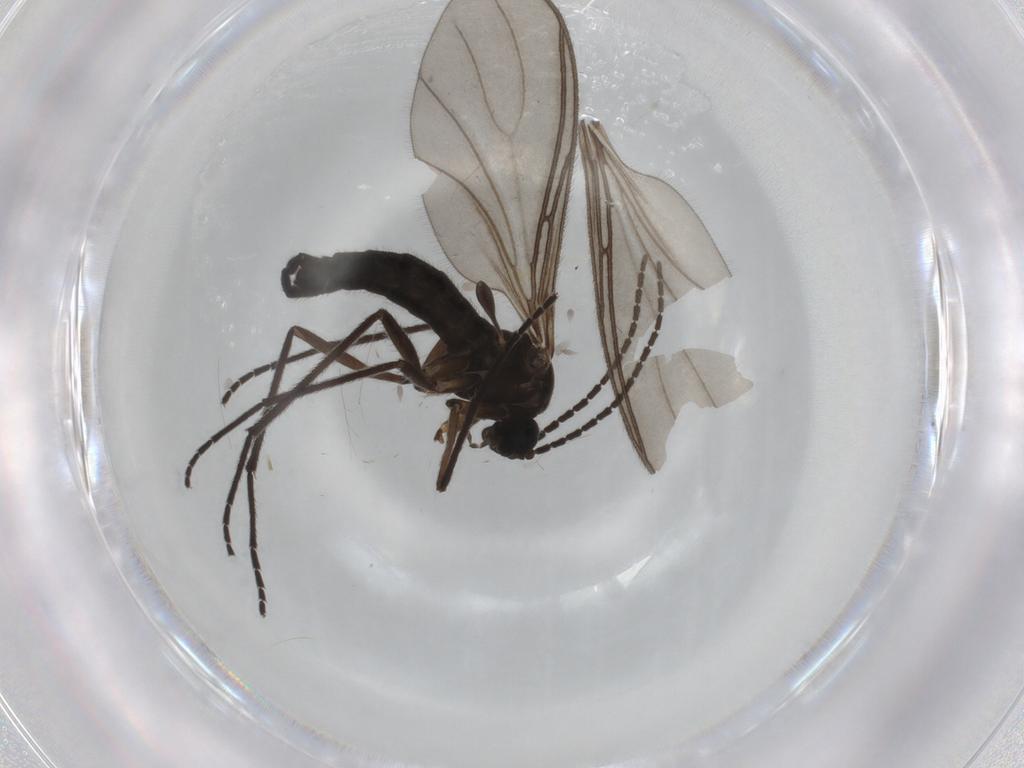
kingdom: Animalia
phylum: Arthropoda
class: Insecta
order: Diptera
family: Sciaridae
